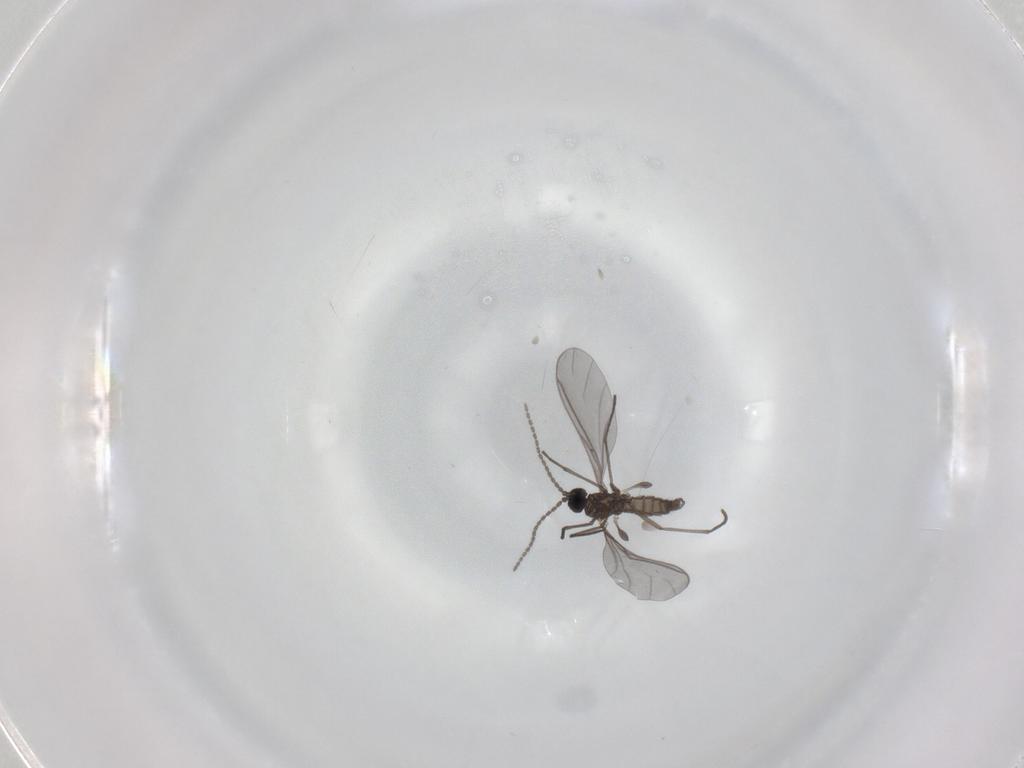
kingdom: Animalia
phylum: Arthropoda
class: Insecta
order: Diptera
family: Sciaridae
